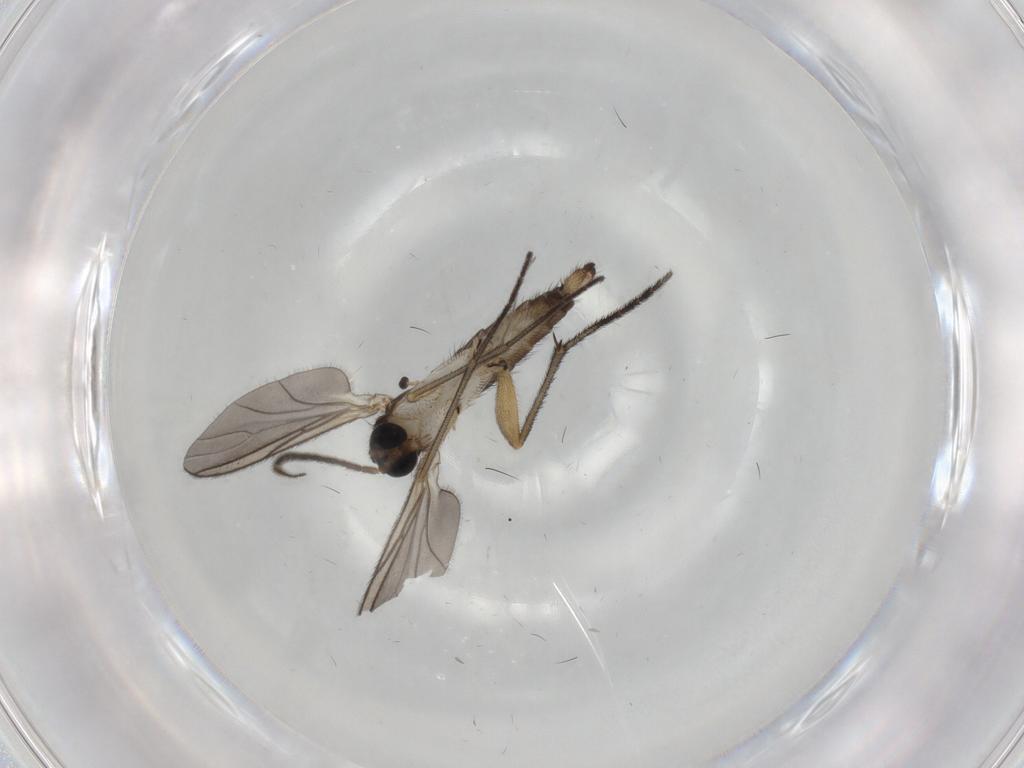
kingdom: Animalia
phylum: Arthropoda
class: Insecta
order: Diptera
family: Sciaridae
